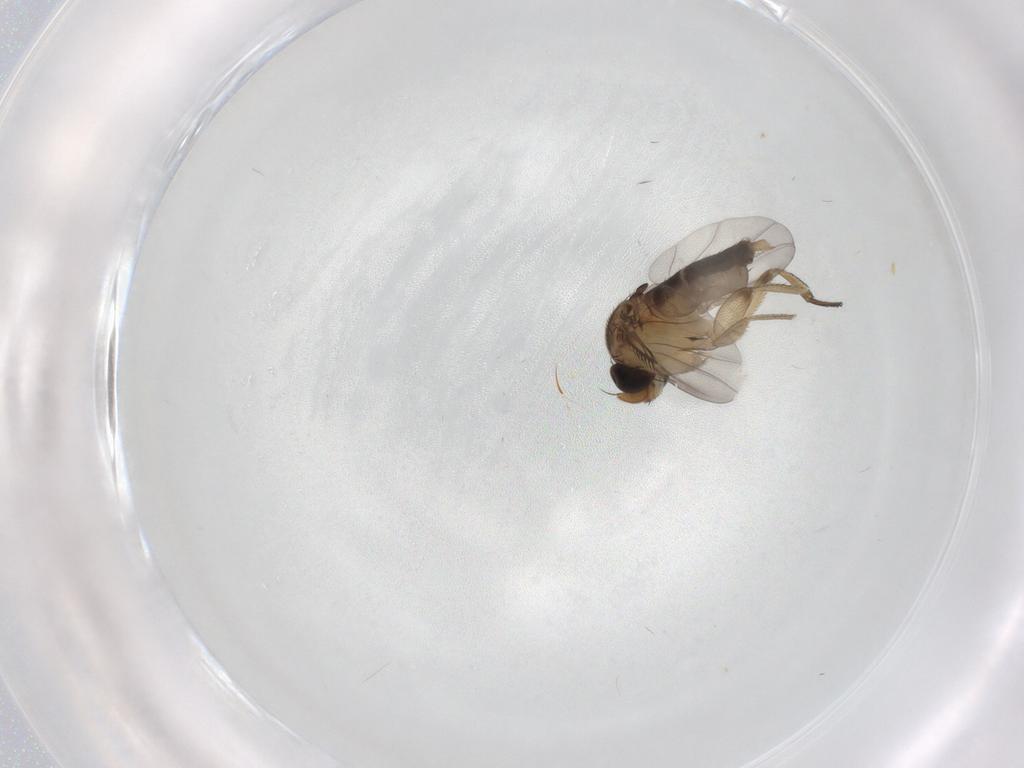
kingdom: Animalia
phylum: Arthropoda
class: Insecta
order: Diptera
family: Phoridae
